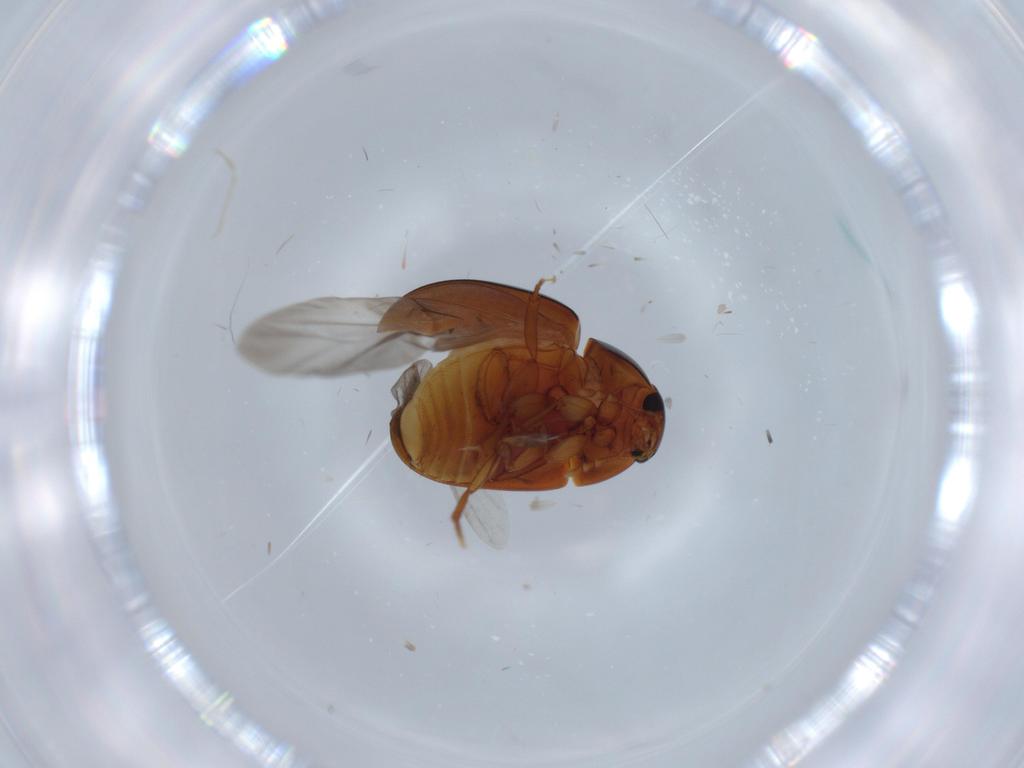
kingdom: Animalia
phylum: Arthropoda
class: Insecta
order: Coleoptera
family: Phalacridae
